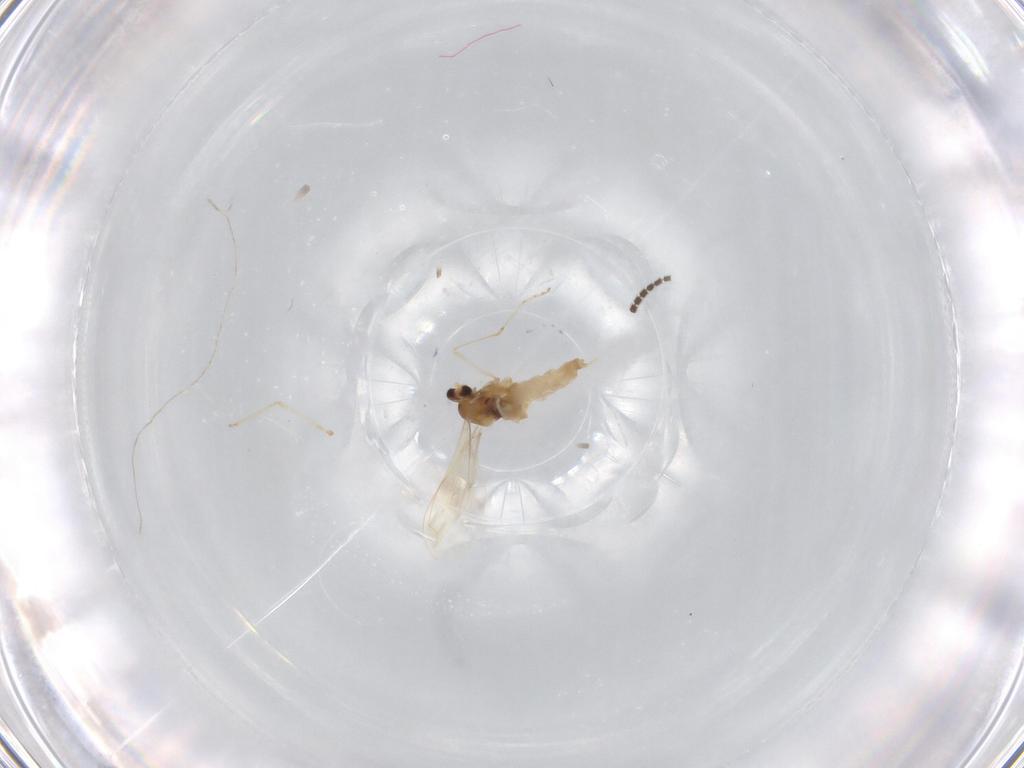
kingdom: Animalia
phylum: Arthropoda
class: Insecta
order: Diptera
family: Cecidomyiidae
